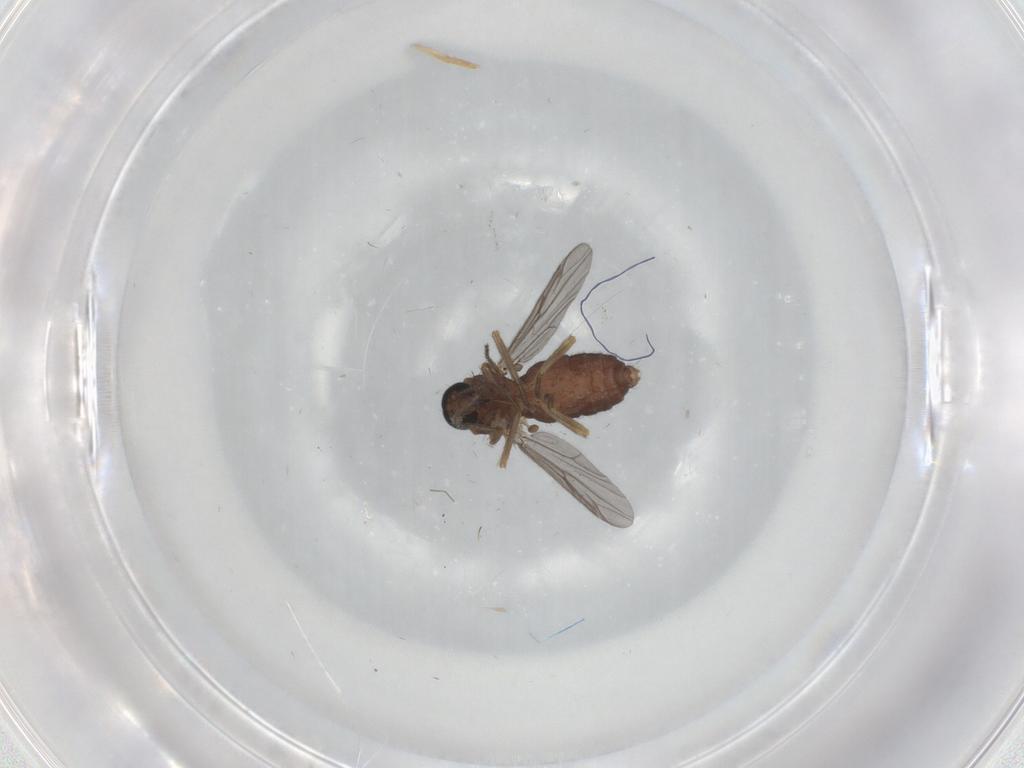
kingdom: Animalia
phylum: Arthropoda
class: Insecta
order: Diptera
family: Ceratopogonidae
